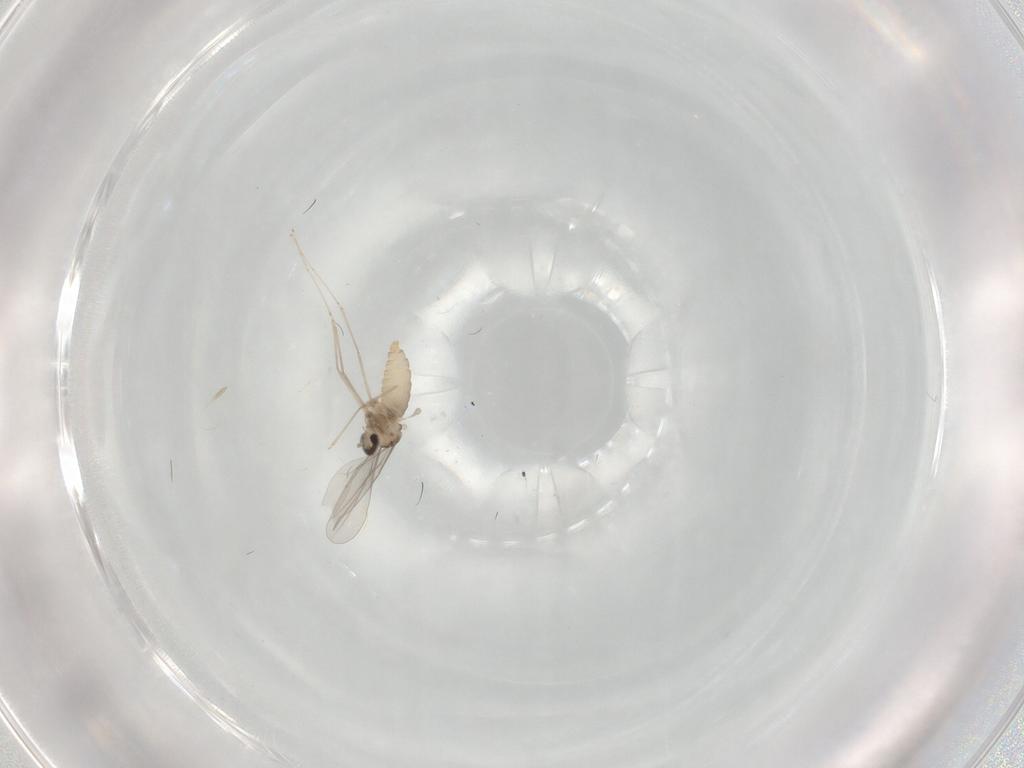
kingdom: Animalia
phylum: Arthropoda
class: Insecta
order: Diptera
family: Cecidomyiidae
